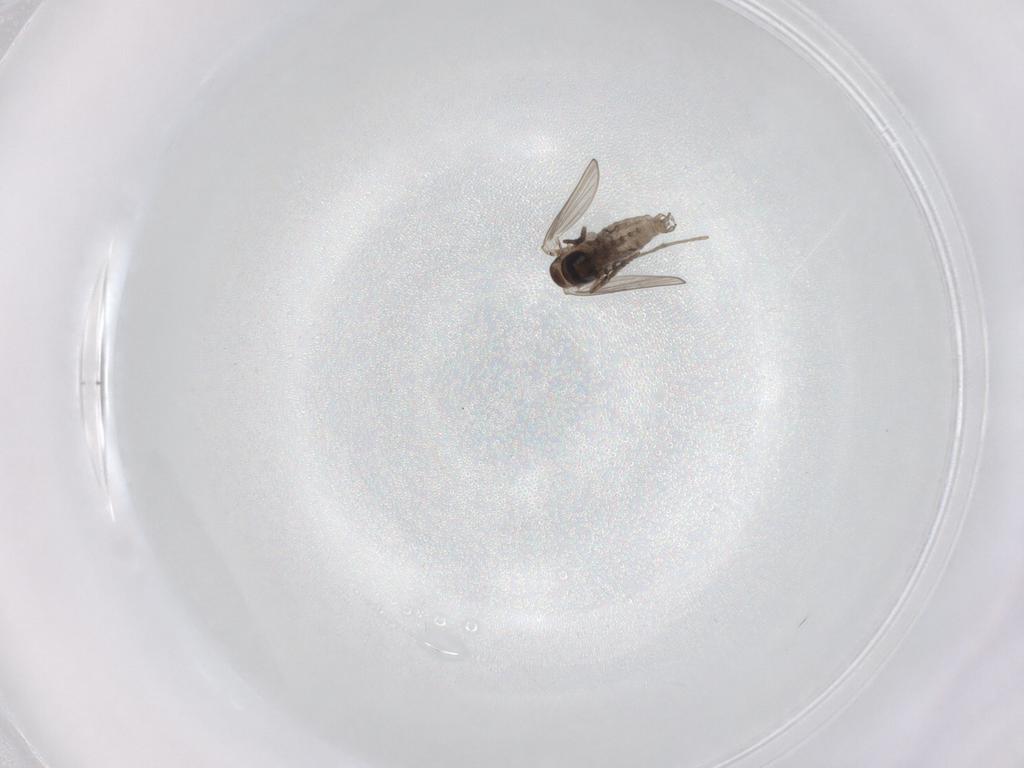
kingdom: Animalia
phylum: Arthropoda
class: Insecta
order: Diptera
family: Psychodidae
